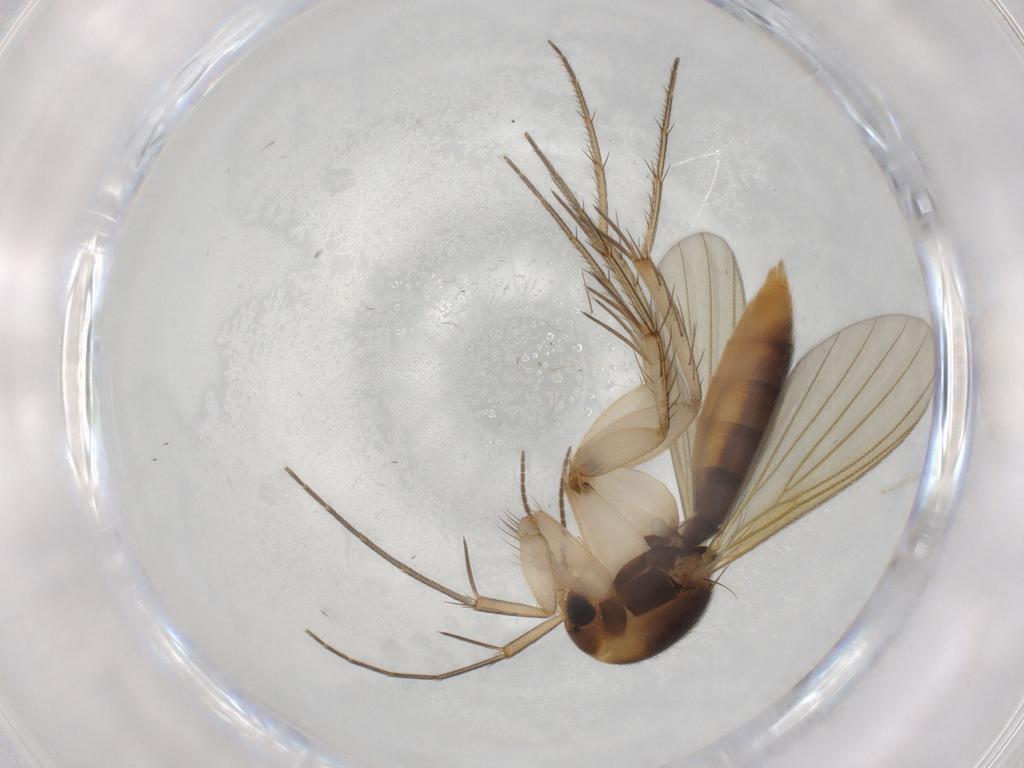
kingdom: Animalia
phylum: Arthropoda
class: Insecta
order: Diptera
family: Mycetophilidae
